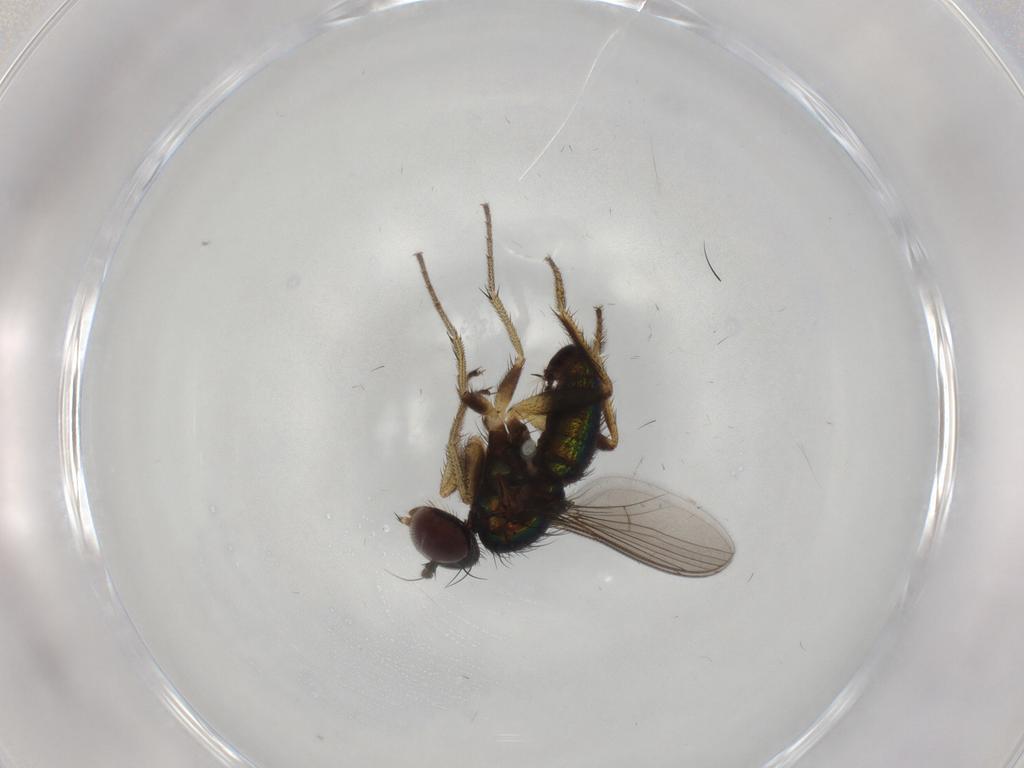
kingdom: Animalia
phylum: Arthropoda
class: Insecta
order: Diptera
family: Dolichopodidae
